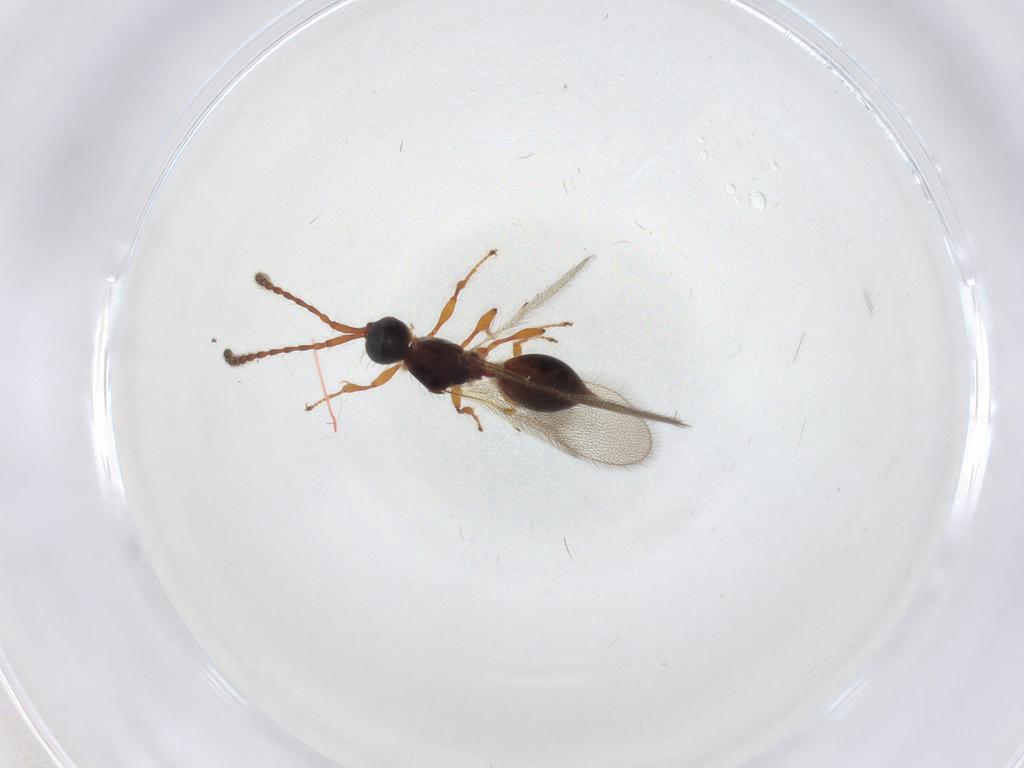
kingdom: Animalia
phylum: Arthropoda
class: Insecta
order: Hymenoptera
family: Diapriidae
